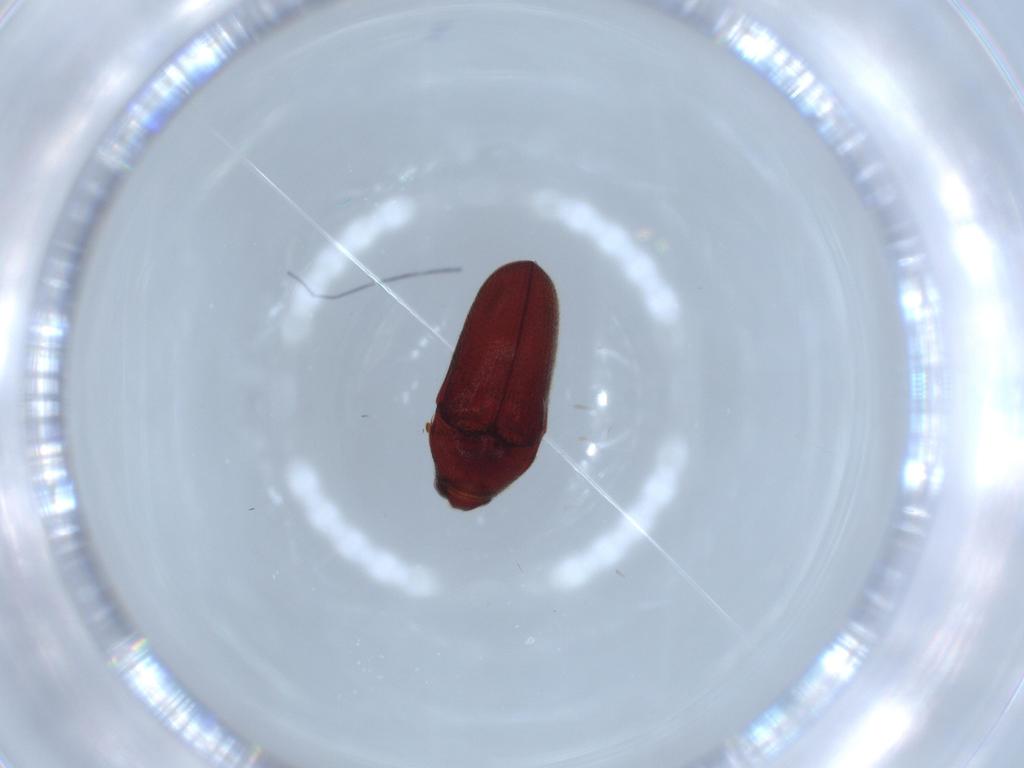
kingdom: Animalia
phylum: Arthropoda
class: Insecta
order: Coleoptera
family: Throscidae
